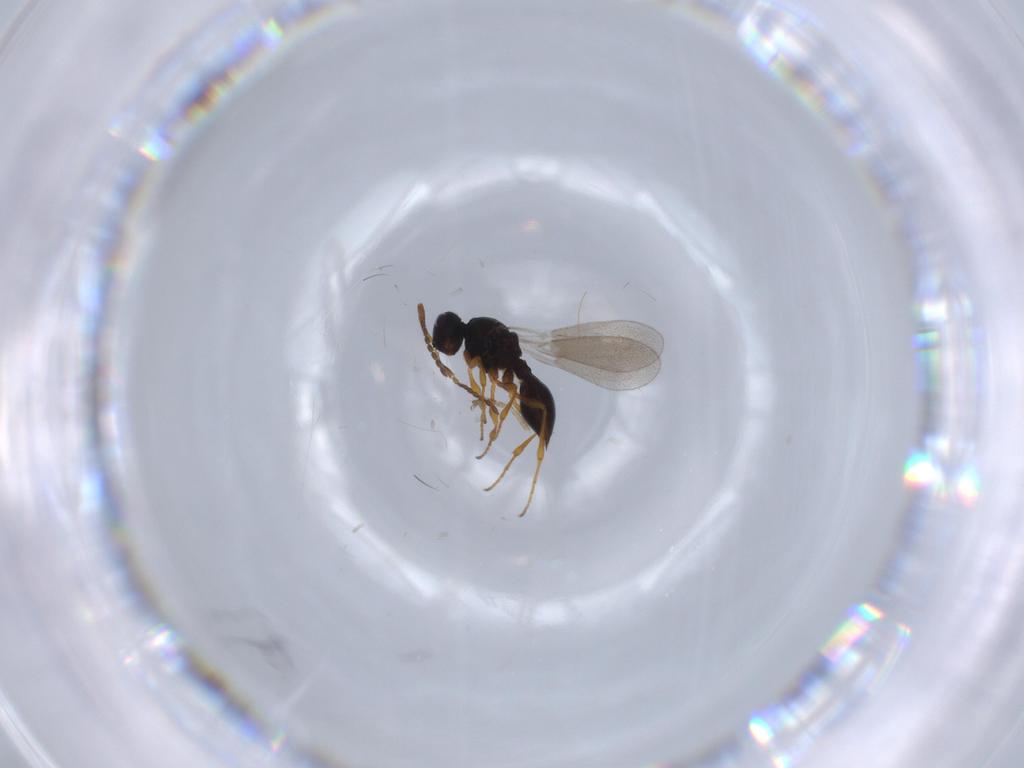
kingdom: Animalia
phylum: Arthropoda
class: Insecta
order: Diptera
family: Mythicomyiidae
